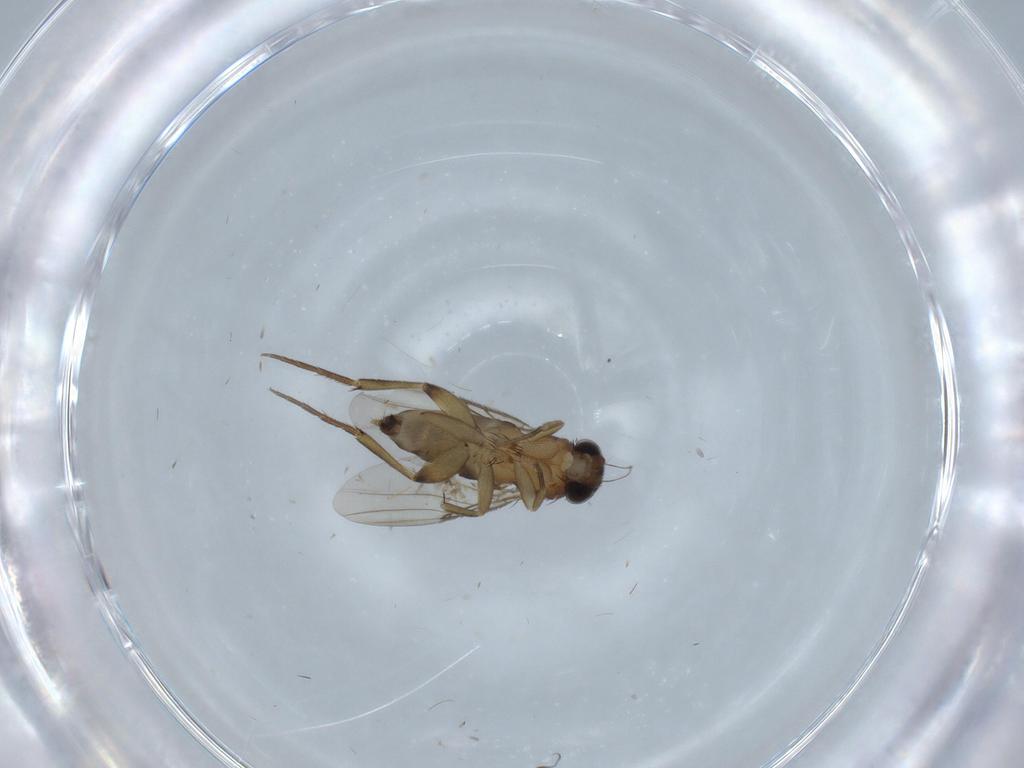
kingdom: Animalia
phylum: Arthropoda
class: Insecta
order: Diptera
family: Phoridae
